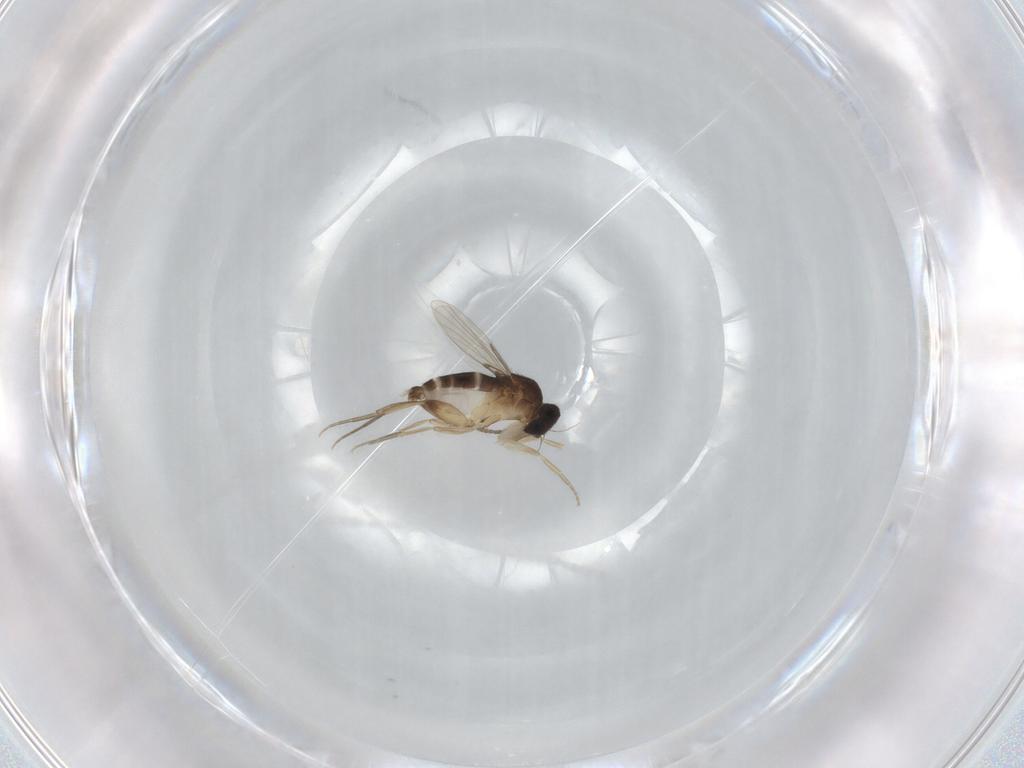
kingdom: Animalia
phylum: Arthropoda
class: Insecta
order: Diptera
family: Phoridae
